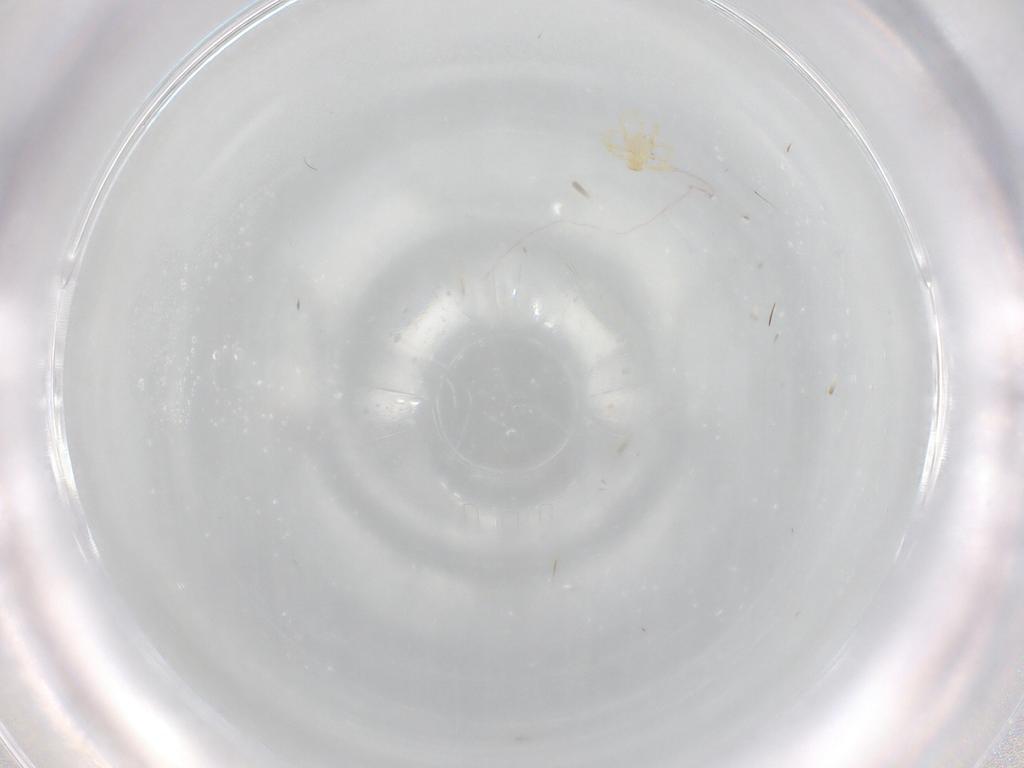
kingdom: Animalia
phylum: Arthropoda
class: Arachnida
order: Trombidiformes
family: Erythraeidae
